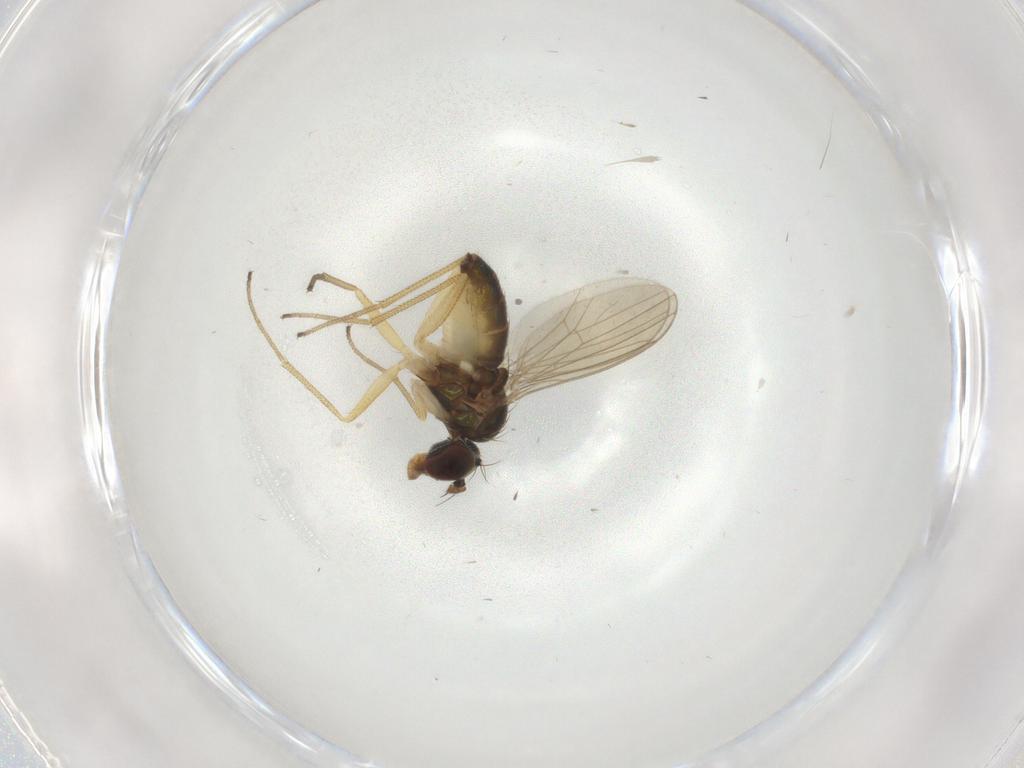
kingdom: Animalia
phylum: Arthropoda
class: Insecta
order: Diptera
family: Chironomidae
